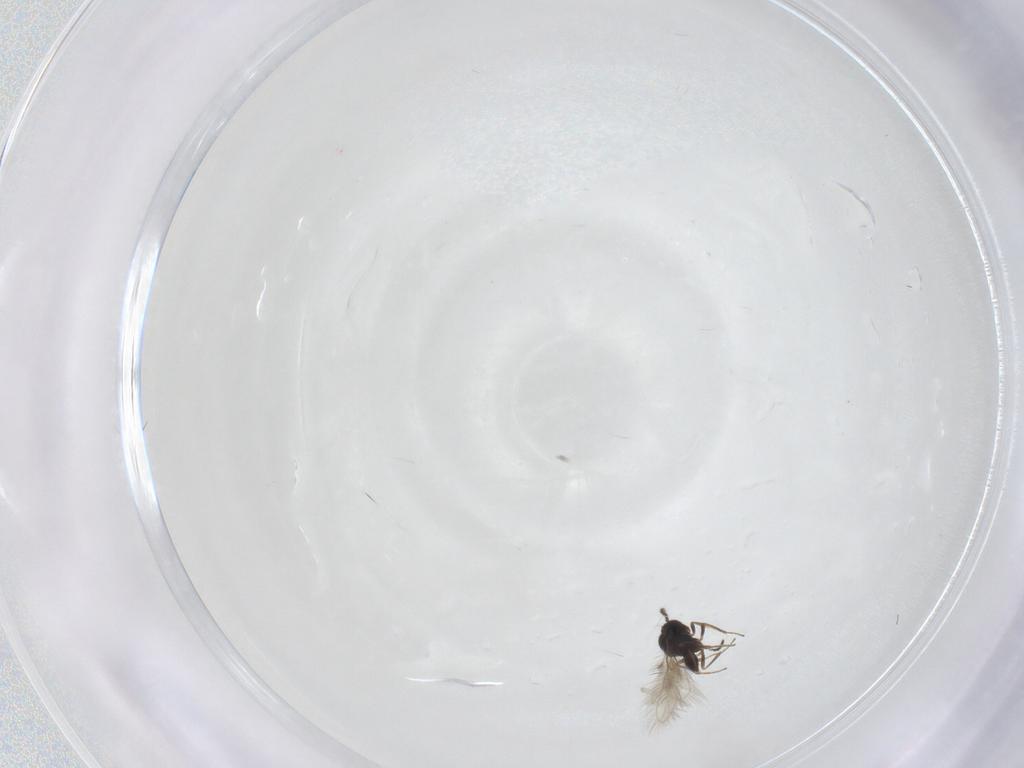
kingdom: Animalia
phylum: Arthropoda
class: Insecta
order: Hymenoptera
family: Scelionidae
